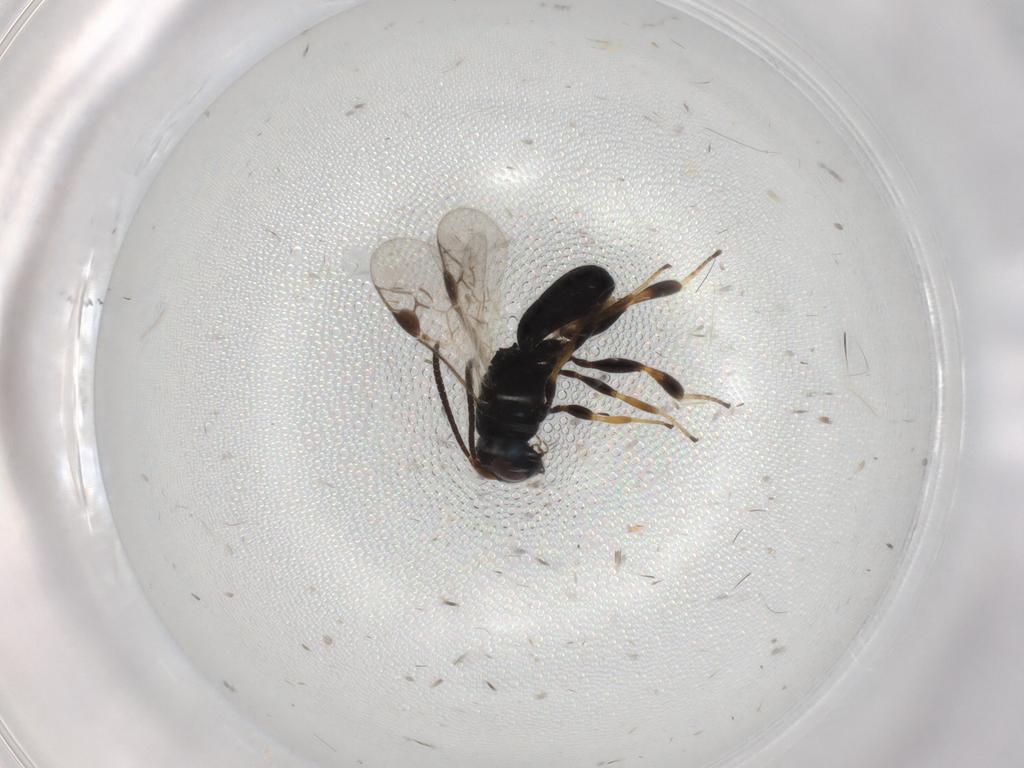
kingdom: Animalia
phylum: Arthropoda
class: Insecta
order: Hymenoptera
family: Braconidae
